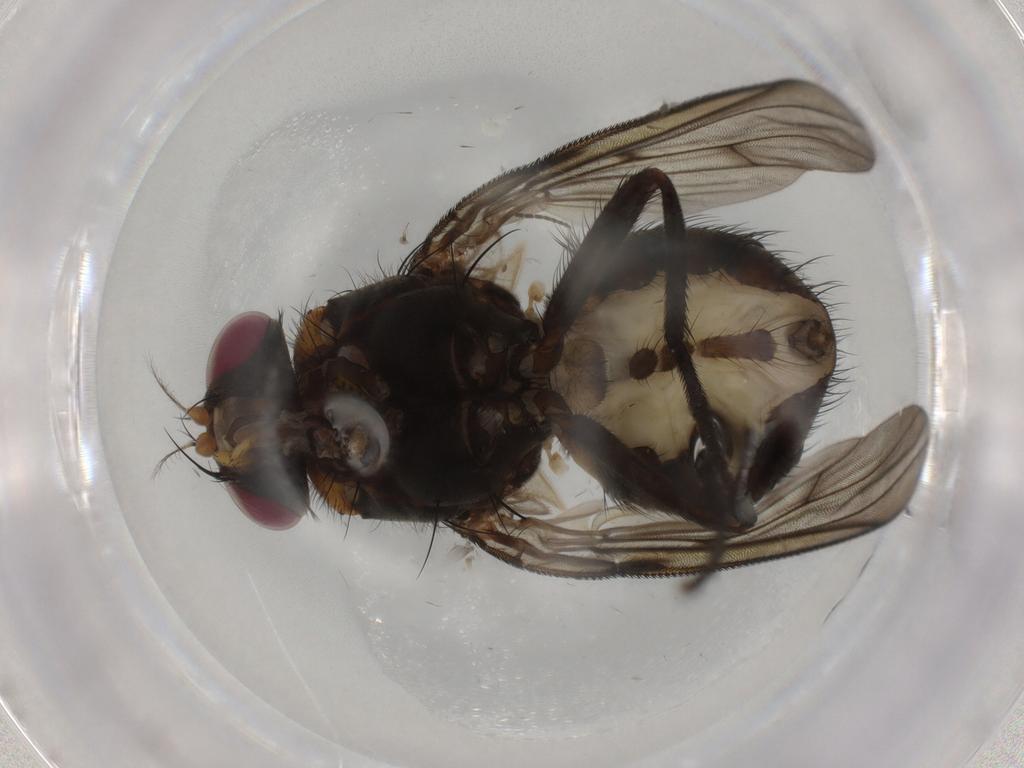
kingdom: Animalia
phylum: Arthropoda
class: Insecta
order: Diptera
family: Muscidae
